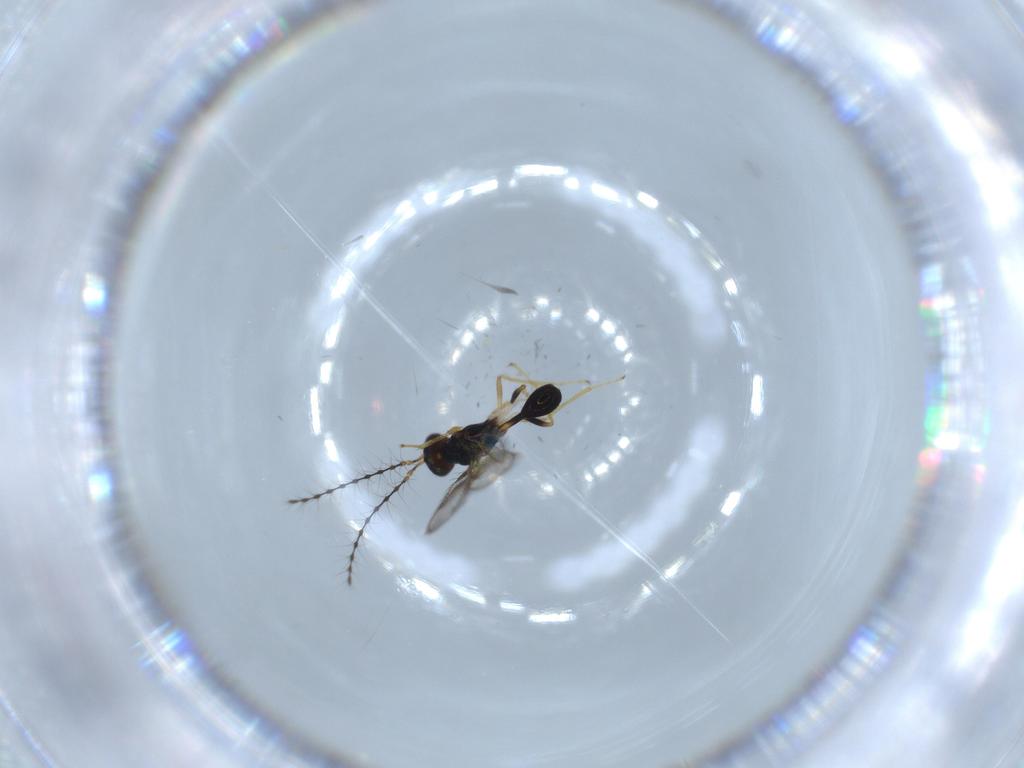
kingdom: Animalia
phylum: Arthropoda
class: Insecta
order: Hymenoptera
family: Diparidae
